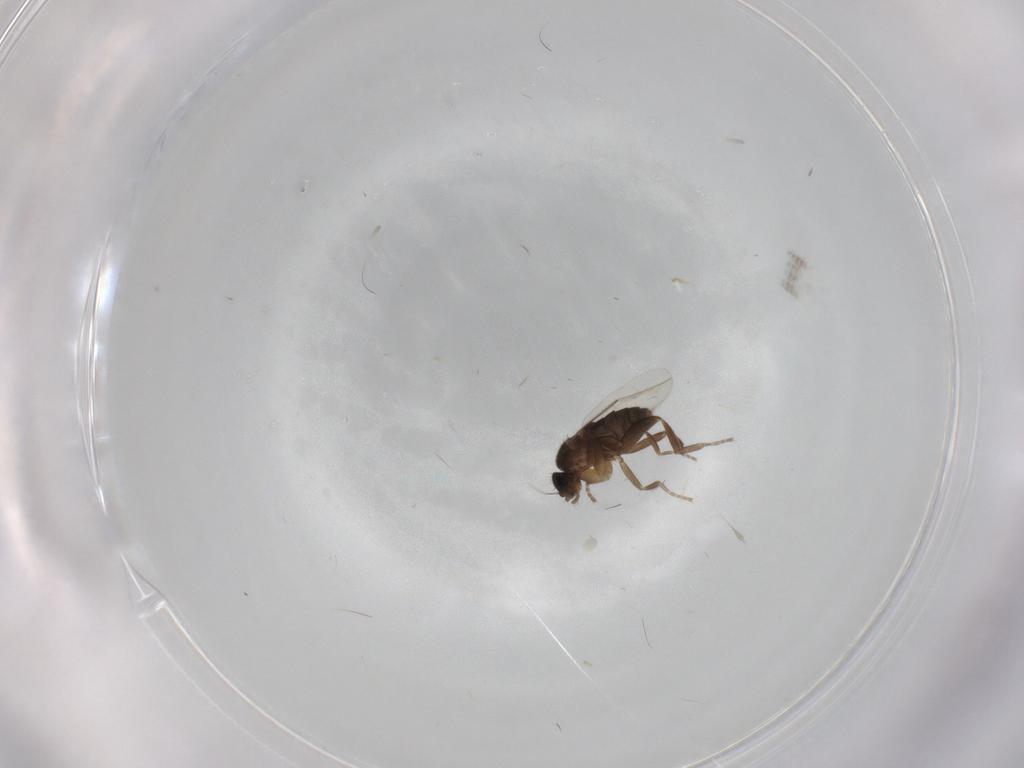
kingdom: Animalia
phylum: Arthropoda
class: Insecta
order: Diptera
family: Phoridae
